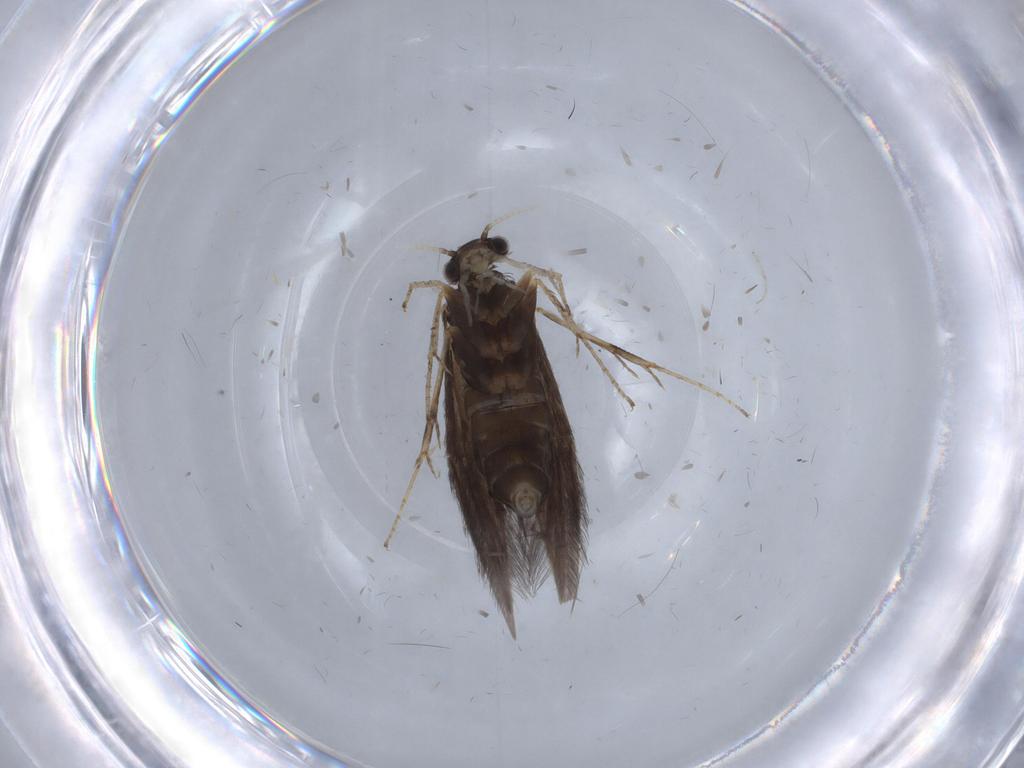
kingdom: Animalia
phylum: Arthropoda
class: Insecta
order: Trichoptera
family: Hydroptilidae
